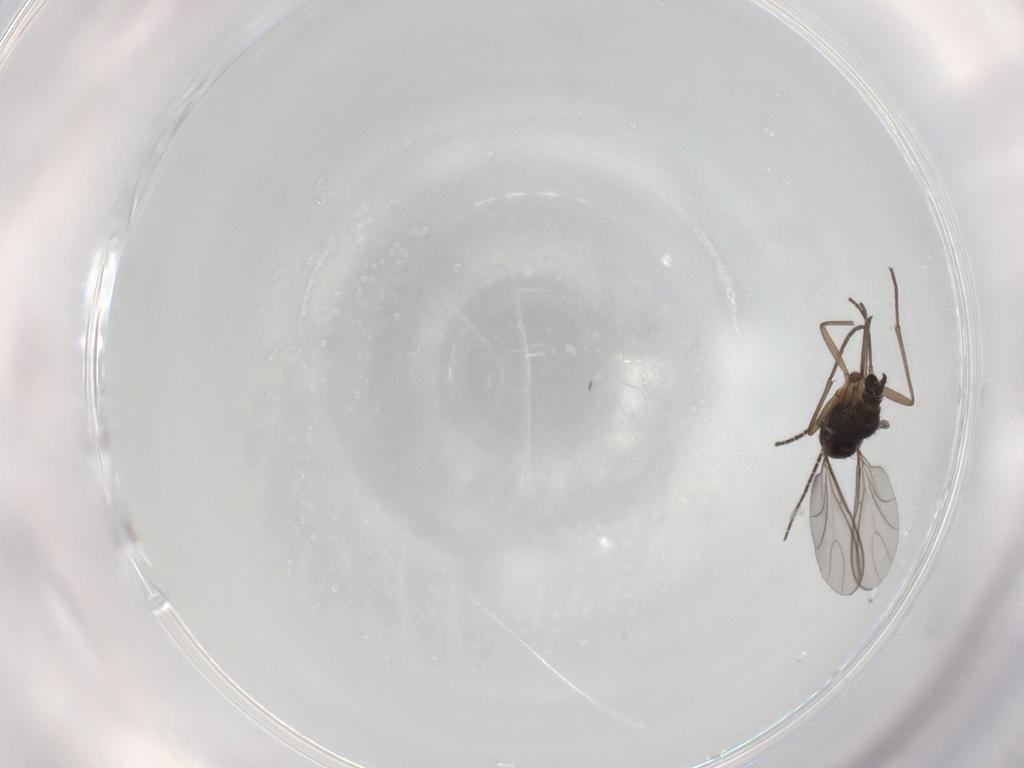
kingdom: Animalia
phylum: Arthropoda
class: Insecta
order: Diptera
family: Sciaridae
